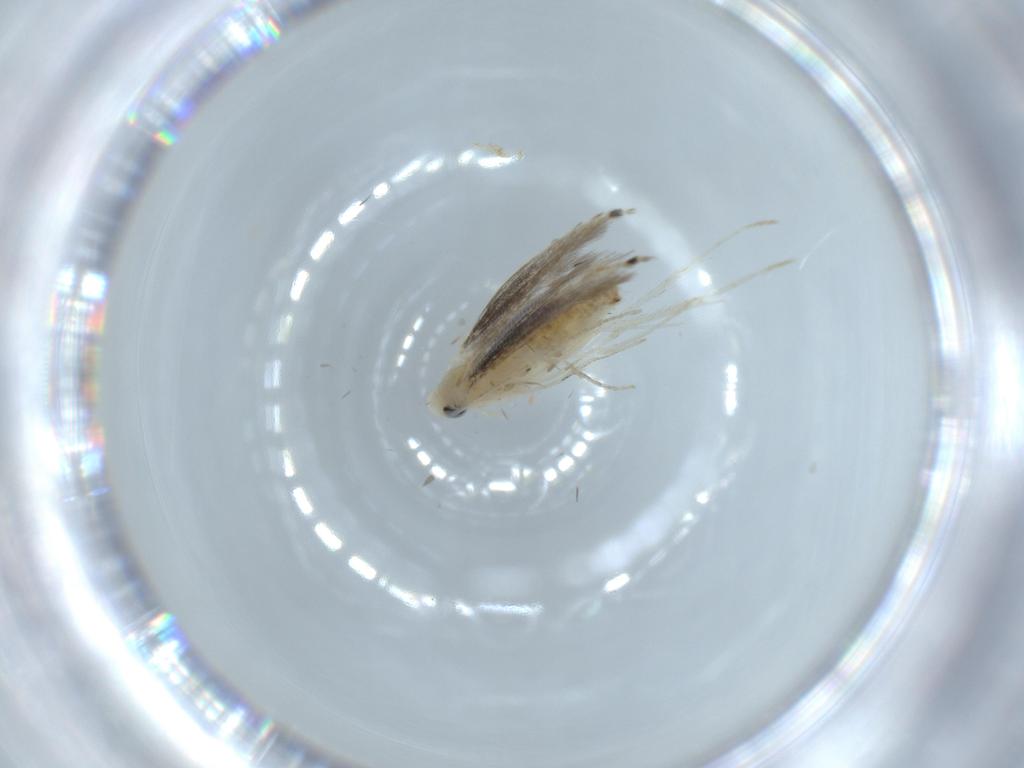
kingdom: Animalia
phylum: Arthropoda
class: Insecta
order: Lepidoptera
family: Nepticulidae
